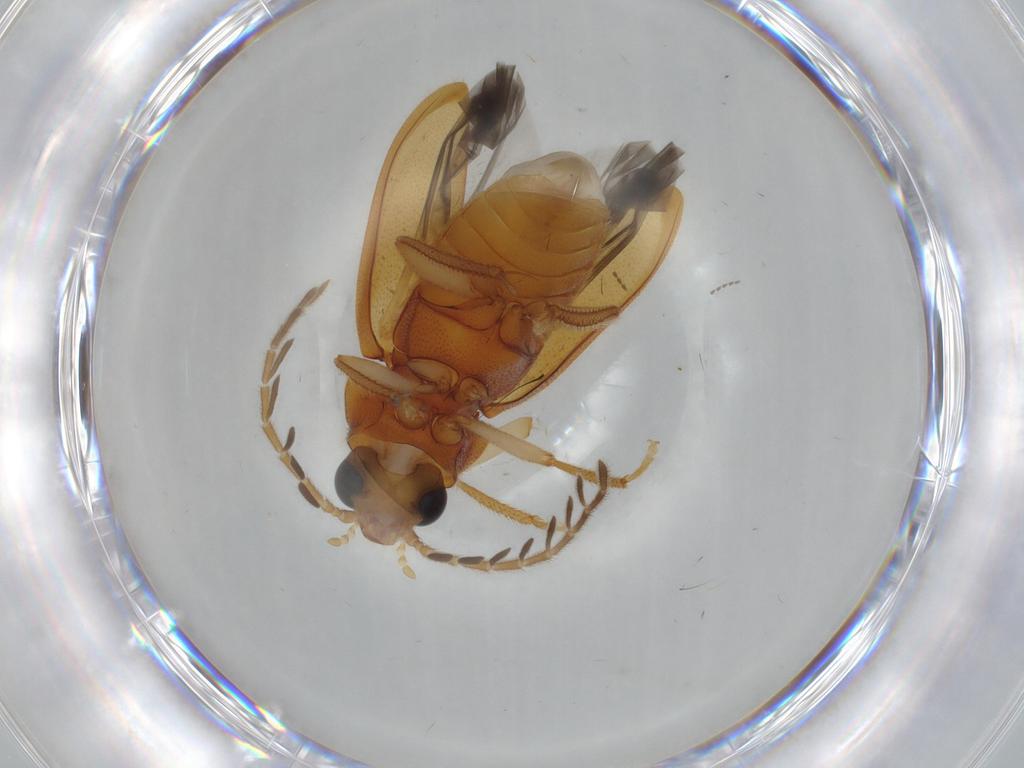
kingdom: Animalia
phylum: Arthropoda
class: Insecta
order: Coleoptera
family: Ptilodactylidae
